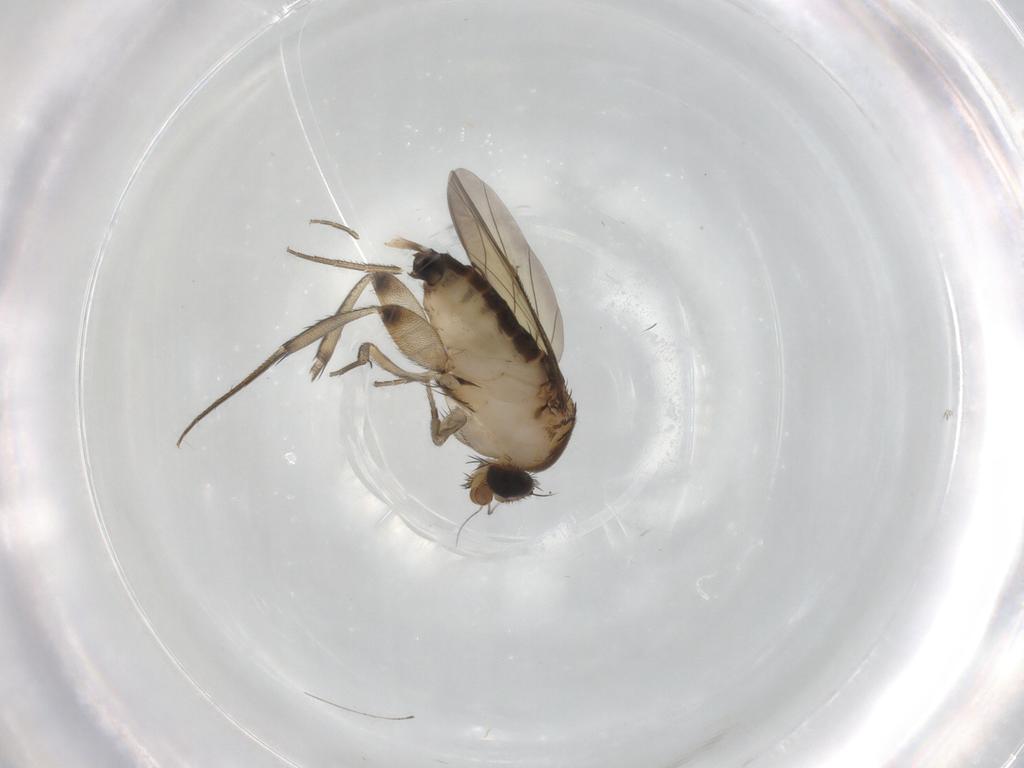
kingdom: Animalia
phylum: Arthropoda
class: Insecta
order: Diptera
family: Phoridae
